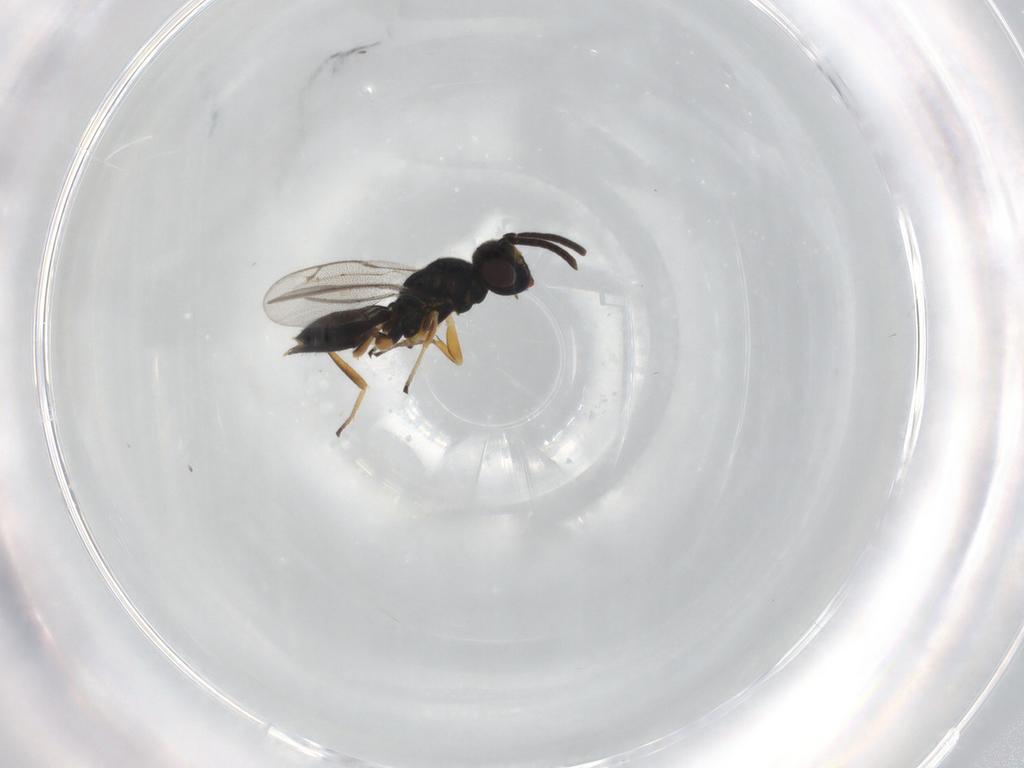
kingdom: Animalia
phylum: Arthropoda
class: Insecta
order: Hymenoptera
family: Eupelmidae
